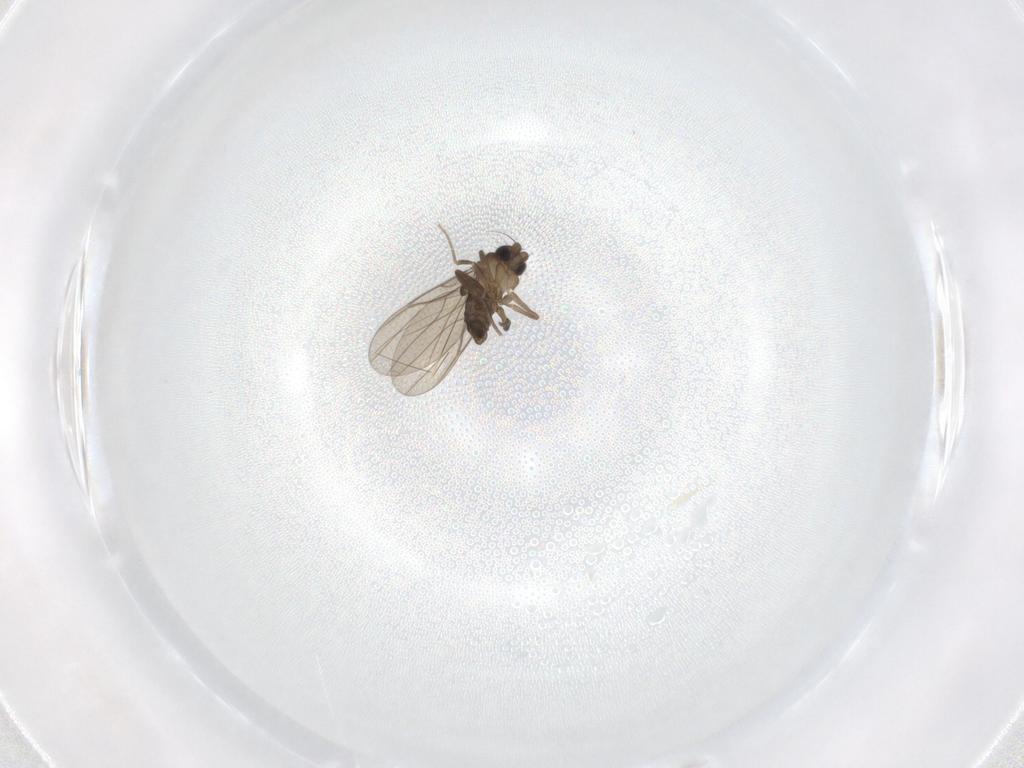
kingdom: Animalia
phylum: Arthropoda
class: Insecta
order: Diptera
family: Phoridae
